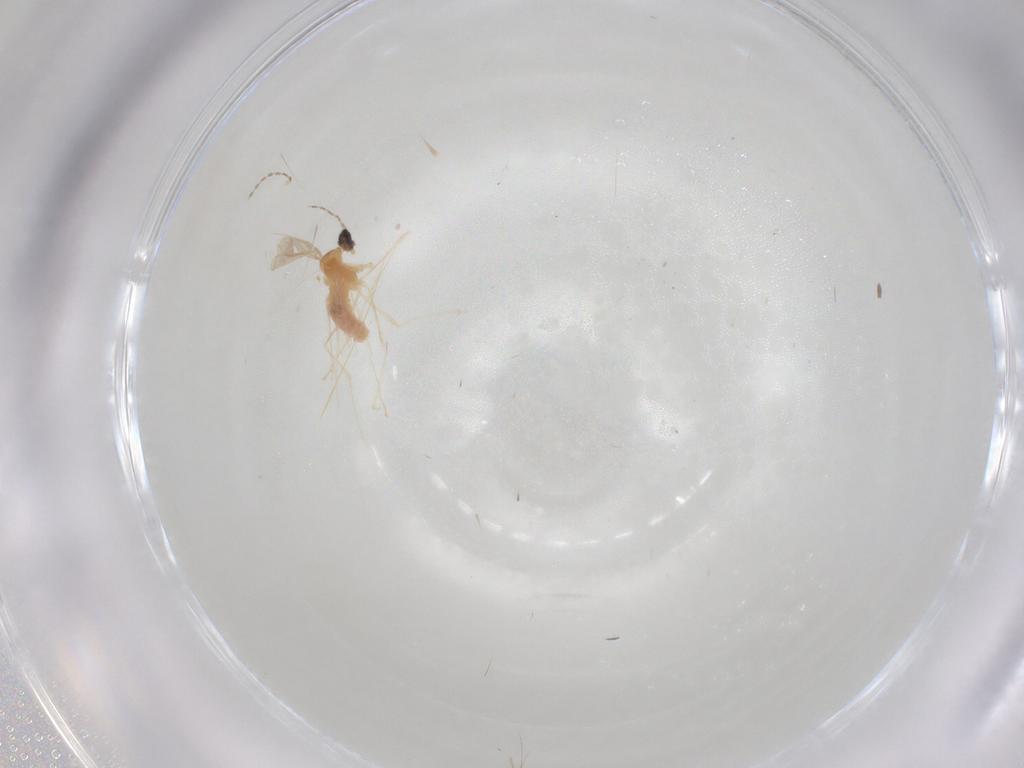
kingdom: Animalia
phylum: Arthropoda
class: Insecta
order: Diptera
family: Cecidomyiidae
